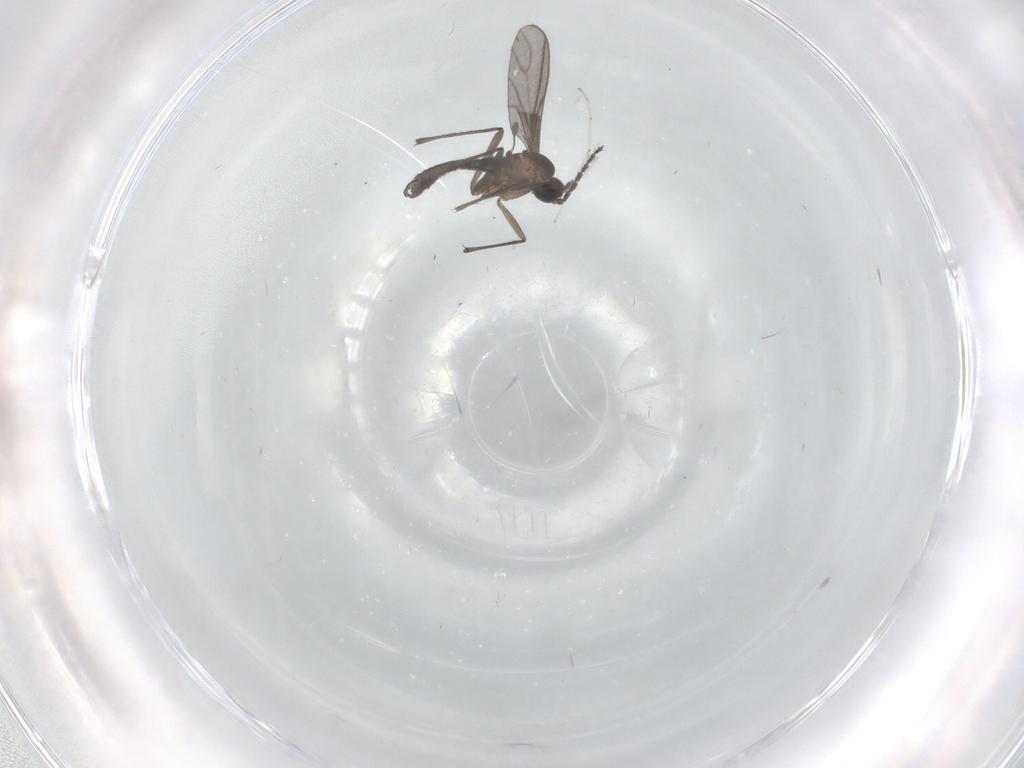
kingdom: Animalia
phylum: Arthropoda
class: Insecta
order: Diptera
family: Sciaridae
